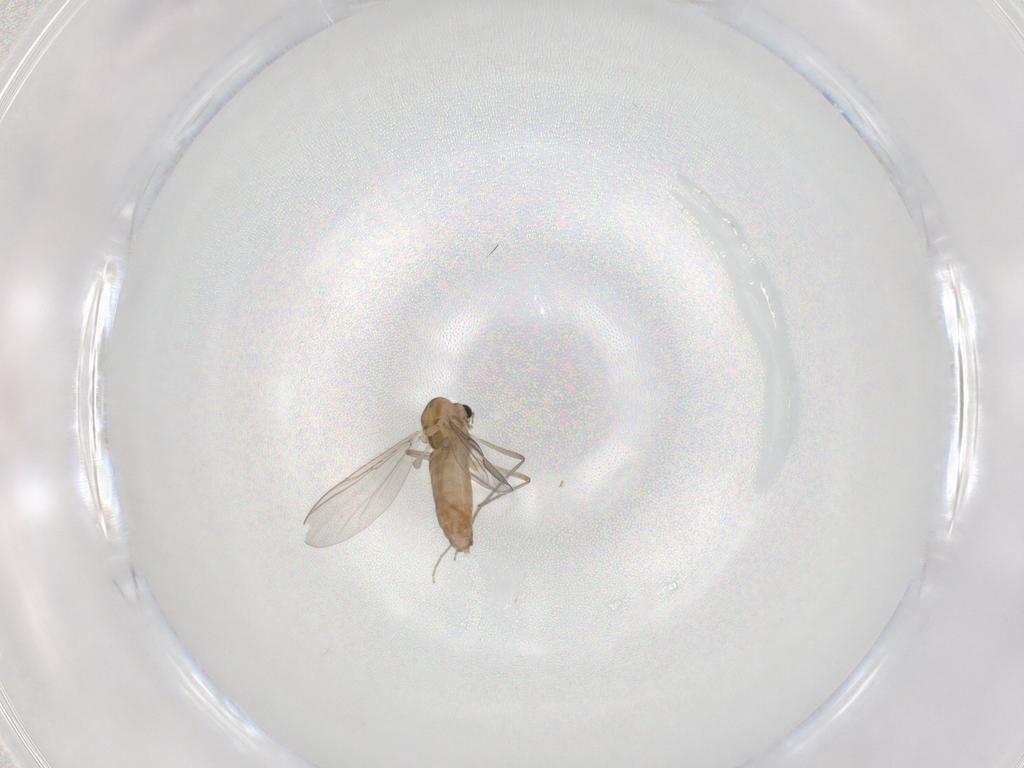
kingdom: Animalia
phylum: Arthropoda
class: Insecta
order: Diptera
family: Chironomidae
